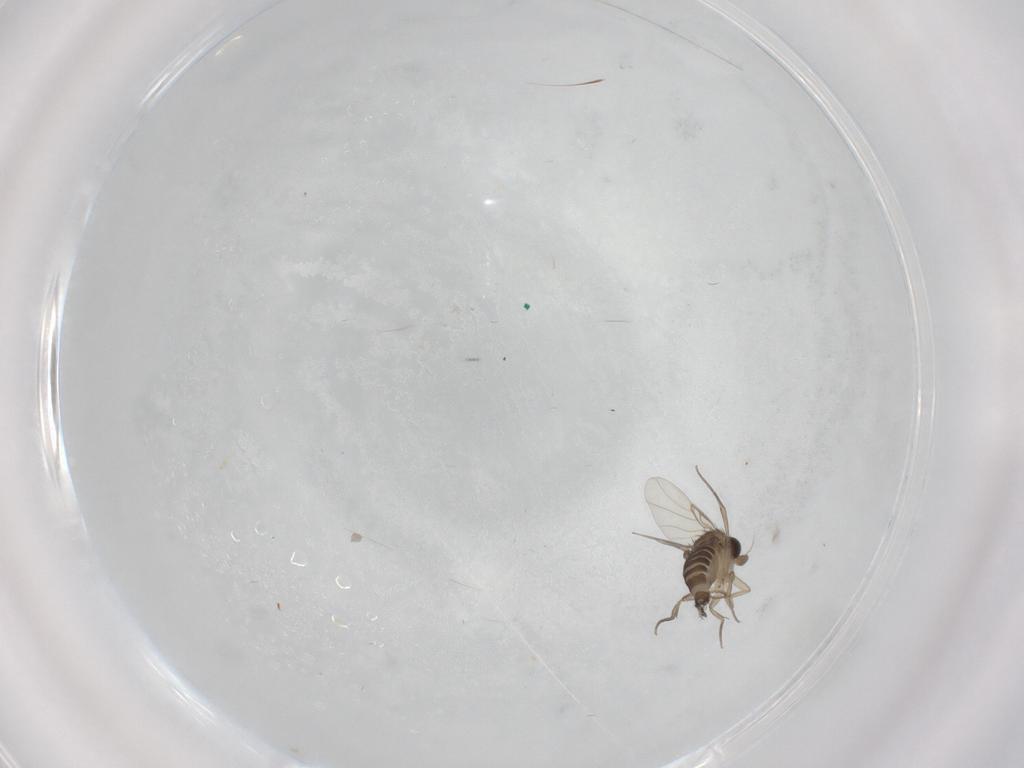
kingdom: Animalia
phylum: Arthropoda
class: Insecta
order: Diptera
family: Phoridae
